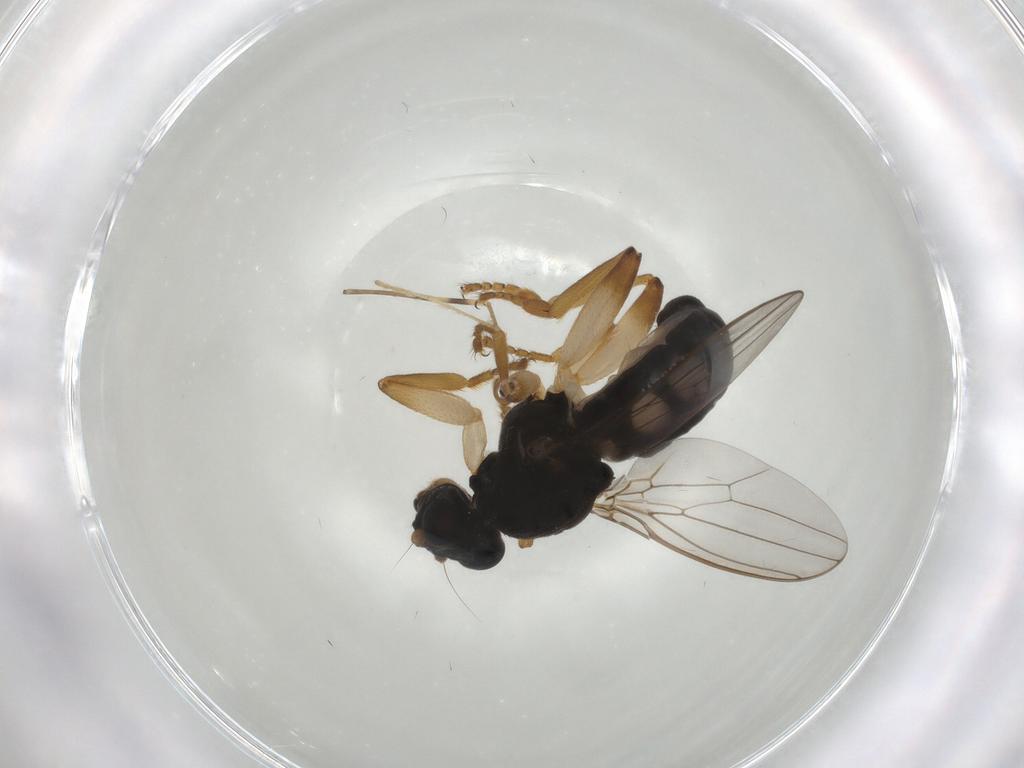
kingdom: Animalia
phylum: Arthropoda
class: Insecta
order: Diptera
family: Sphaeroceridae
